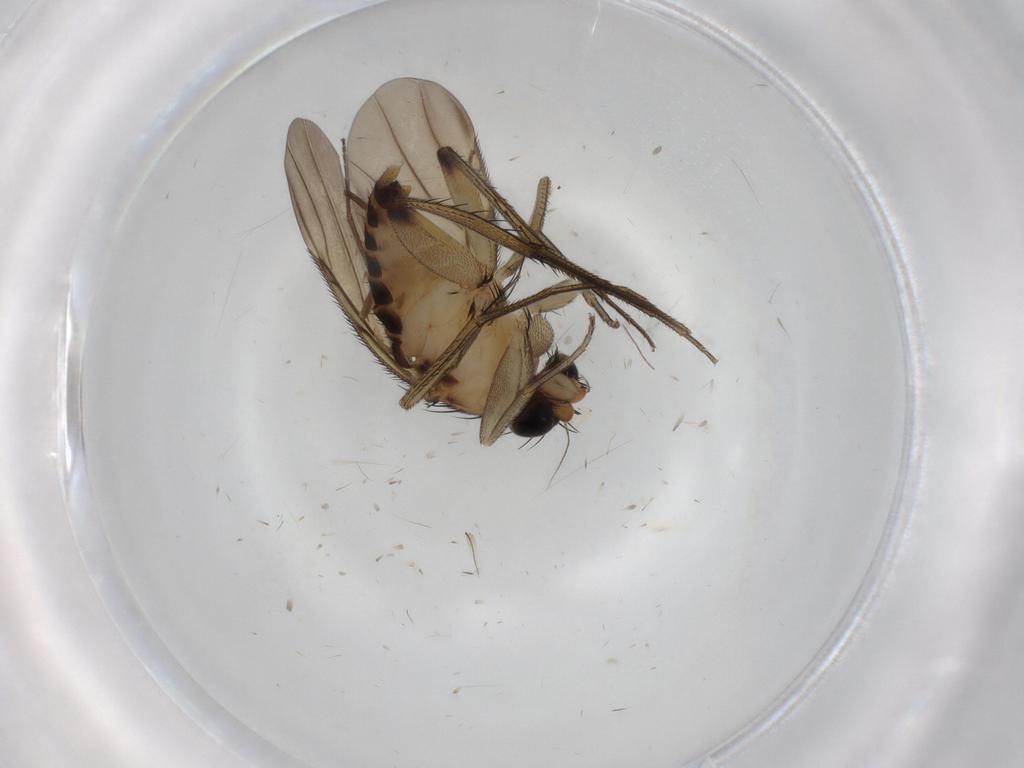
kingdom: Animalia
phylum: Arthropoda
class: Insecta
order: Diptera
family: Sciaridae
